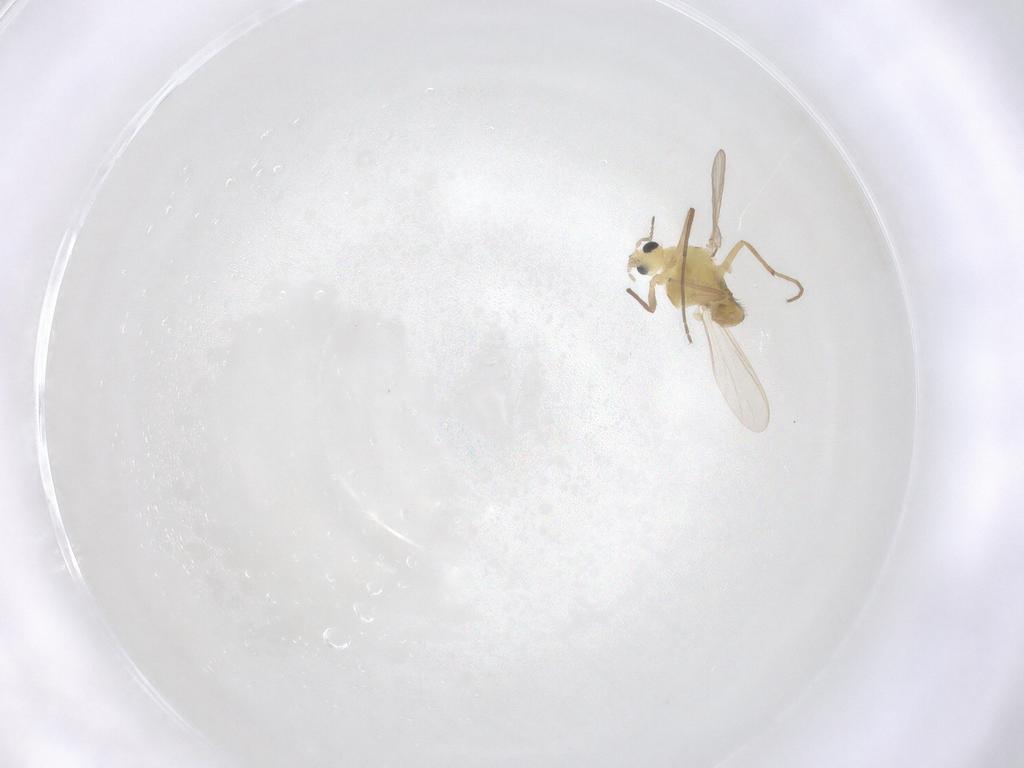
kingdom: Animalia
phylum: Arthropoda
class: Insecta
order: Diptera
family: Chironomidae
